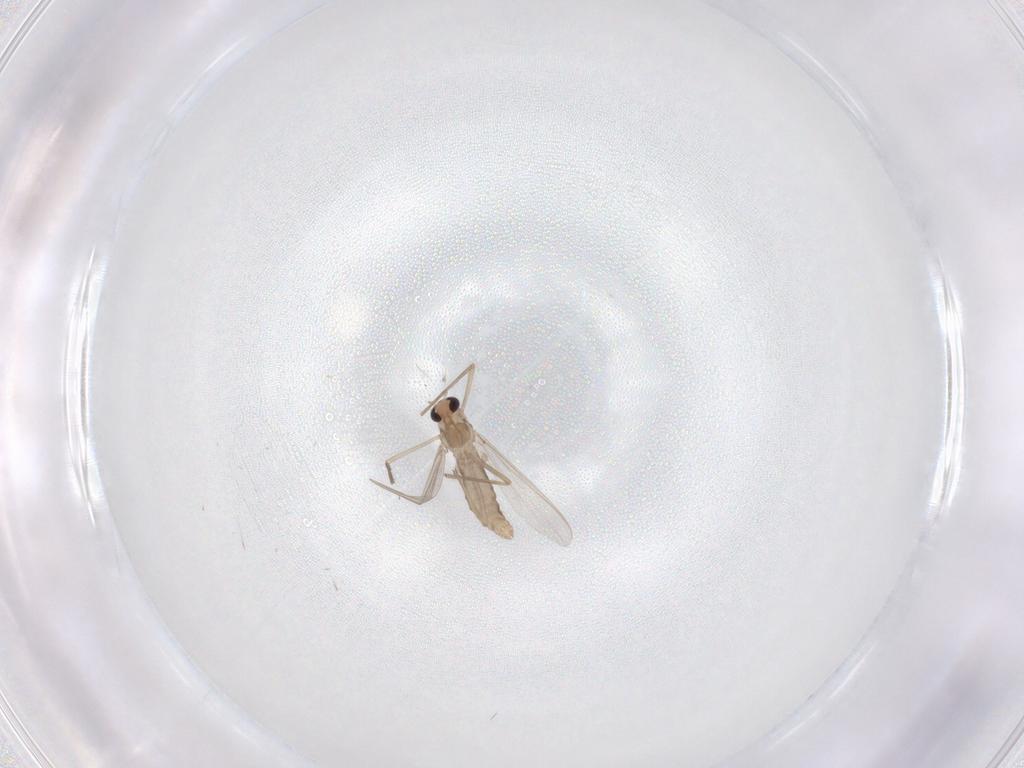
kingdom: Animalia
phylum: Arthropoda
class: Insecta
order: Diptera
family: Chironomidae
